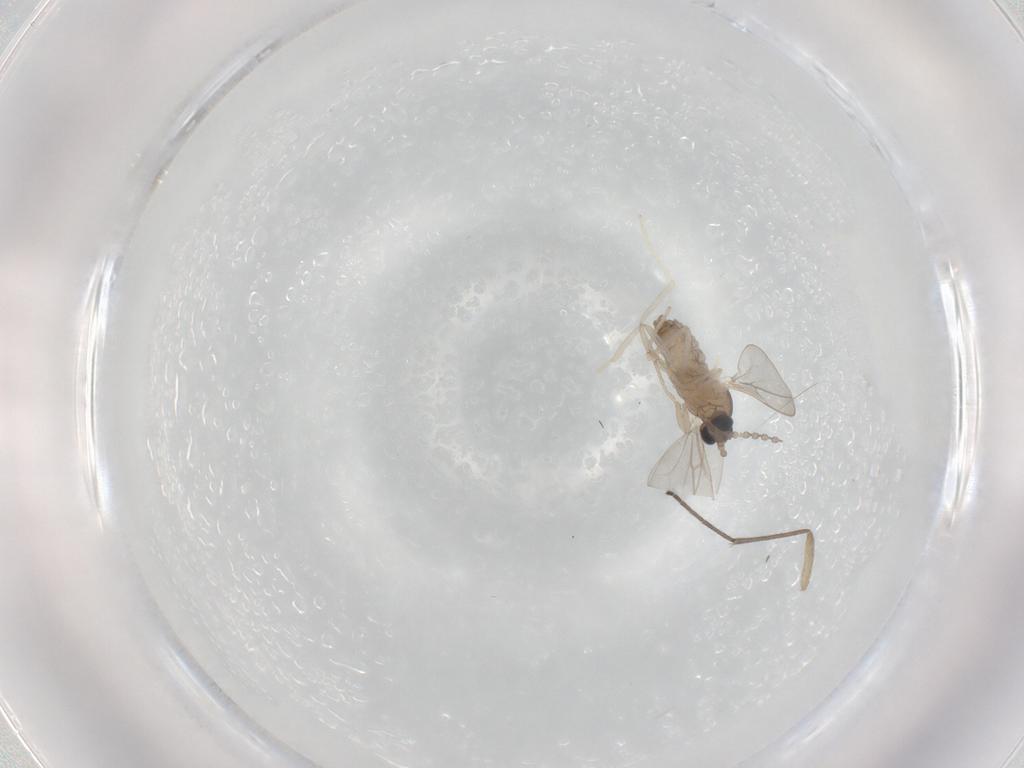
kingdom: Animalia
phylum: Arthropoda
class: Insecta
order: Diptera
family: Cecidomyiidae
